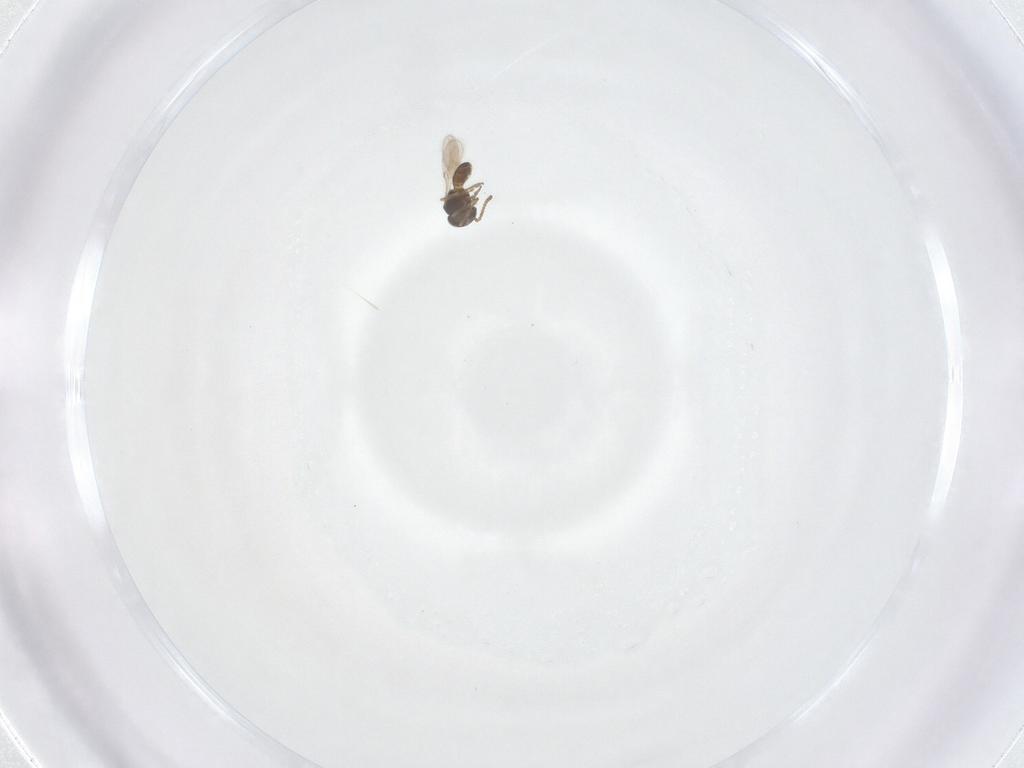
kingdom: Animalia
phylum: Arthropoda
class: Insecta
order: Hymenoptera
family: Scelionidae
